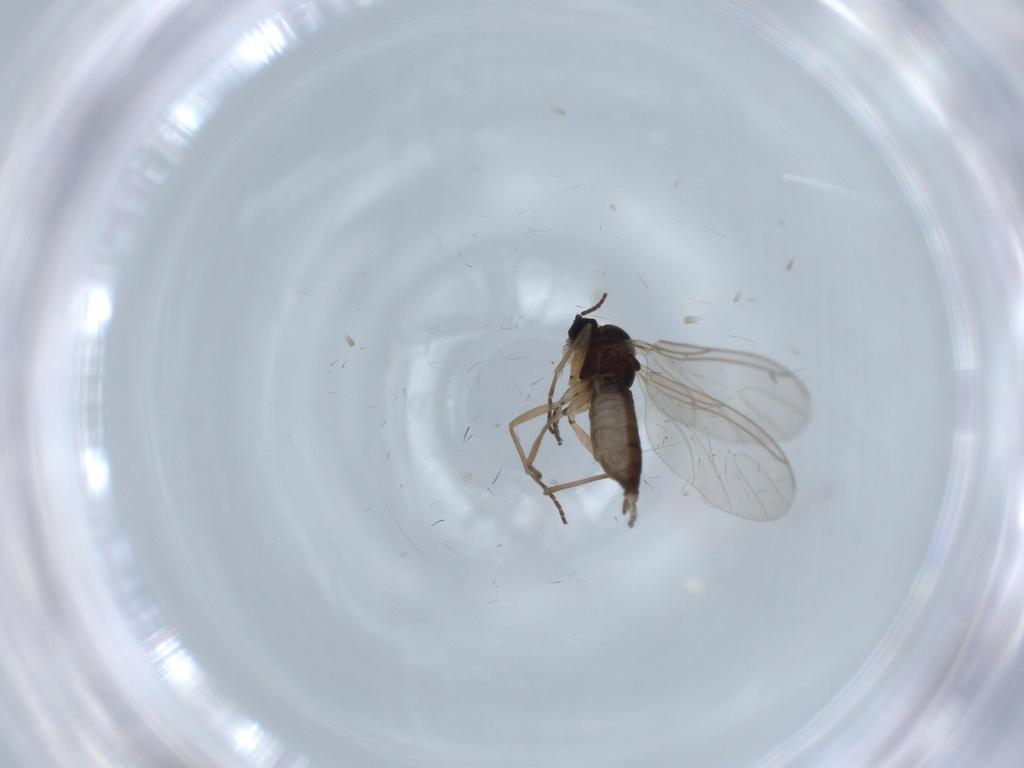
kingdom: Animalia
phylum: Arthropoda
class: Insecta
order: Diptera
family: Sciaridae
